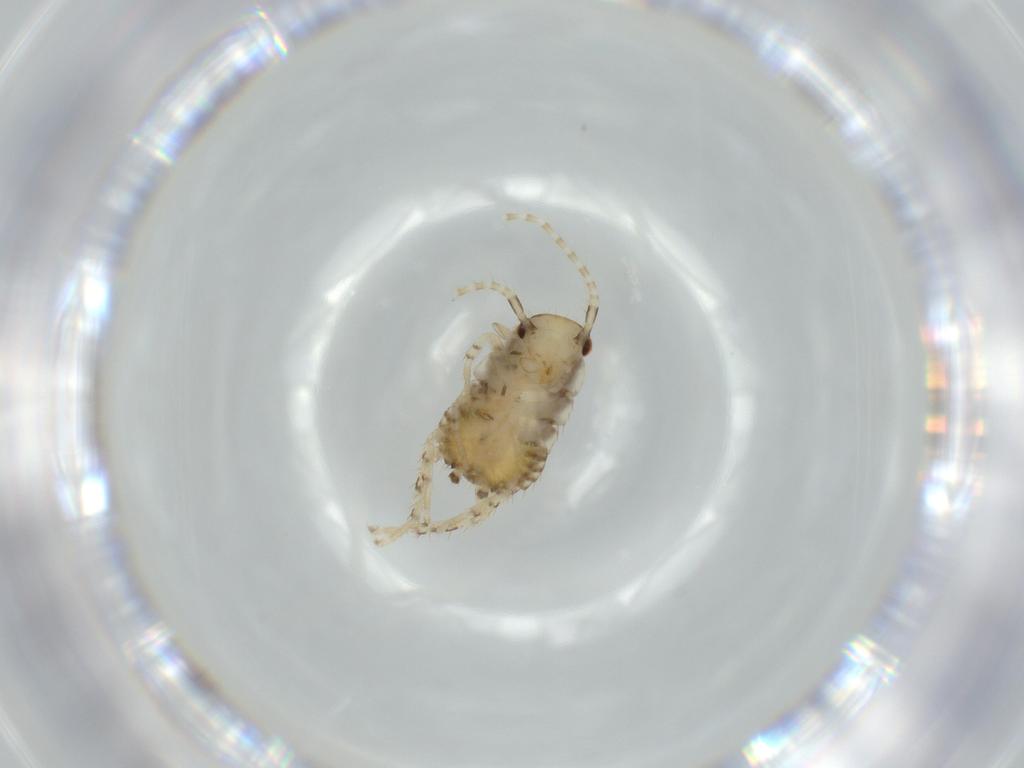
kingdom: Animalia
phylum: Arthropoda
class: Insecta
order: Blattodea
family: Ectobiidae
